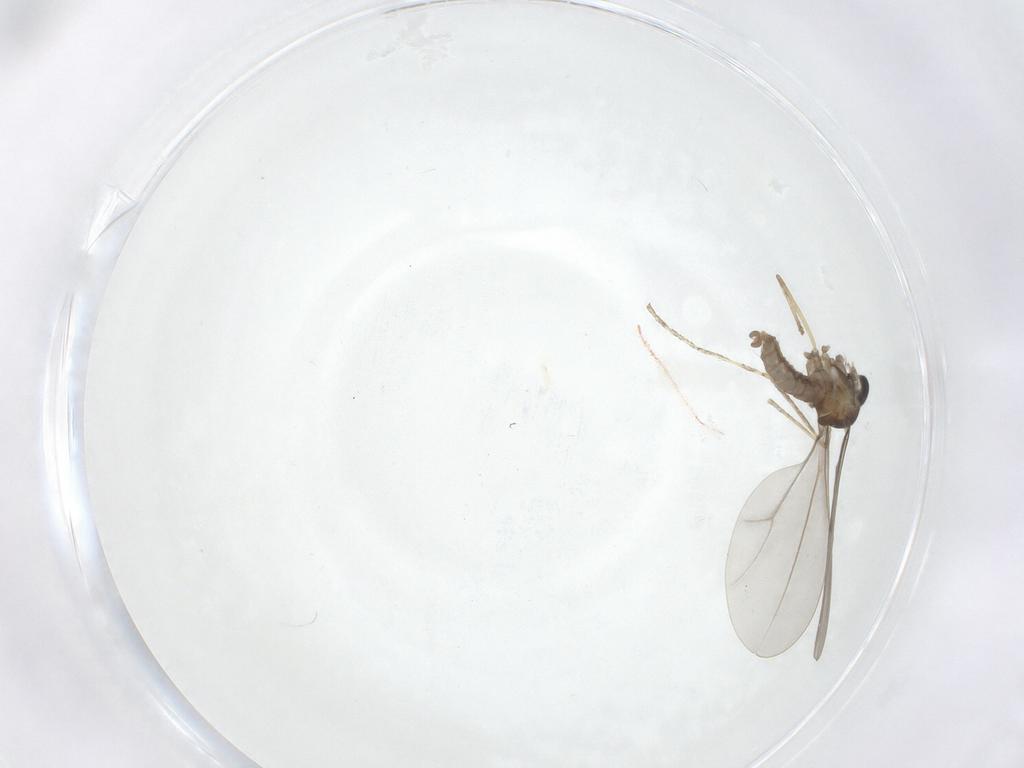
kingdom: Animalia
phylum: Arthropoda
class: Insecta
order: Diptera
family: Cecidomyiidae
